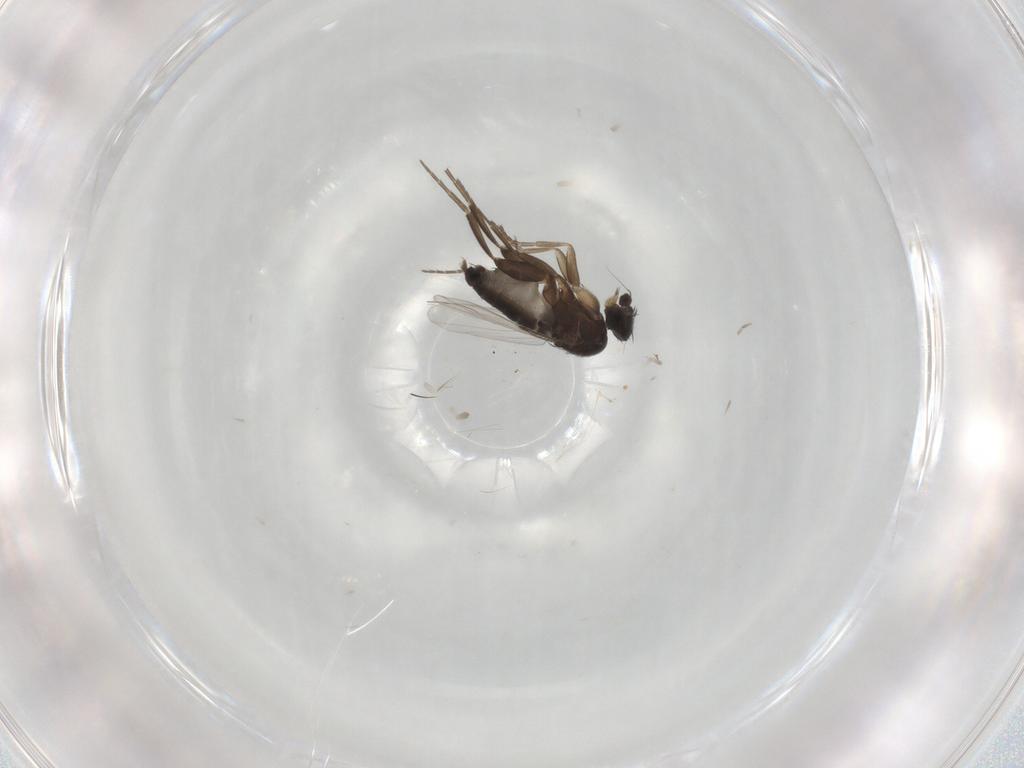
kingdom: Animalia
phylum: Arthropoda
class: Insecta
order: Diptera
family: Phoridae
